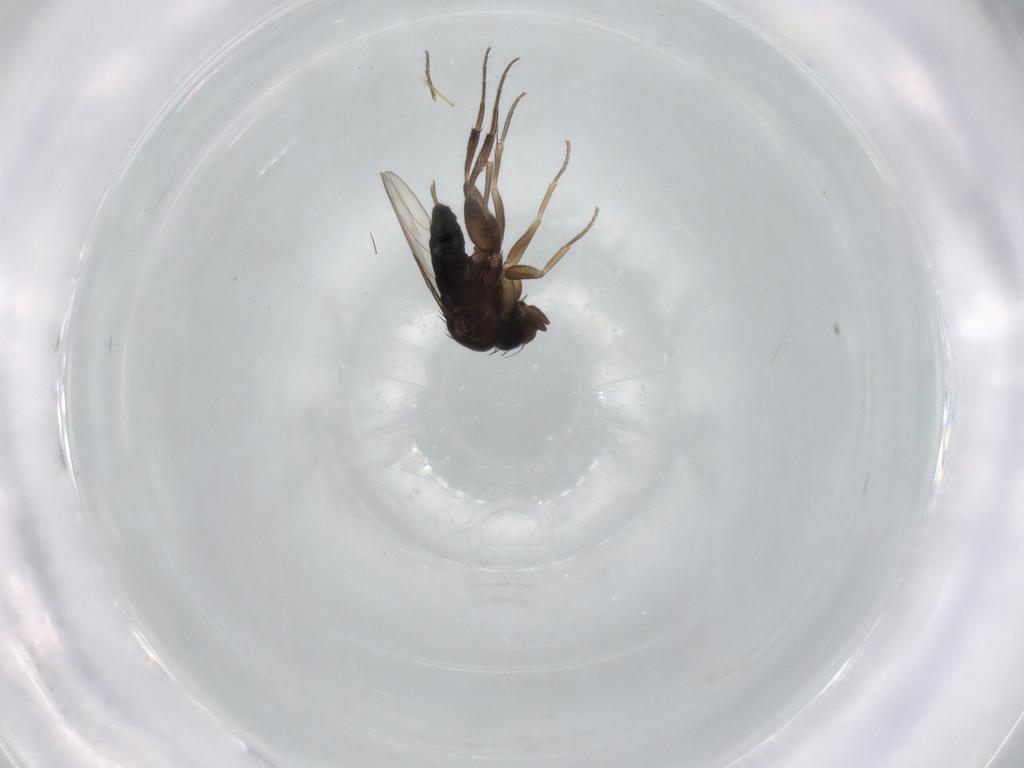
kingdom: Animalia
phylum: Arthropoda
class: Insecta
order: Diptera
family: Phoridae
